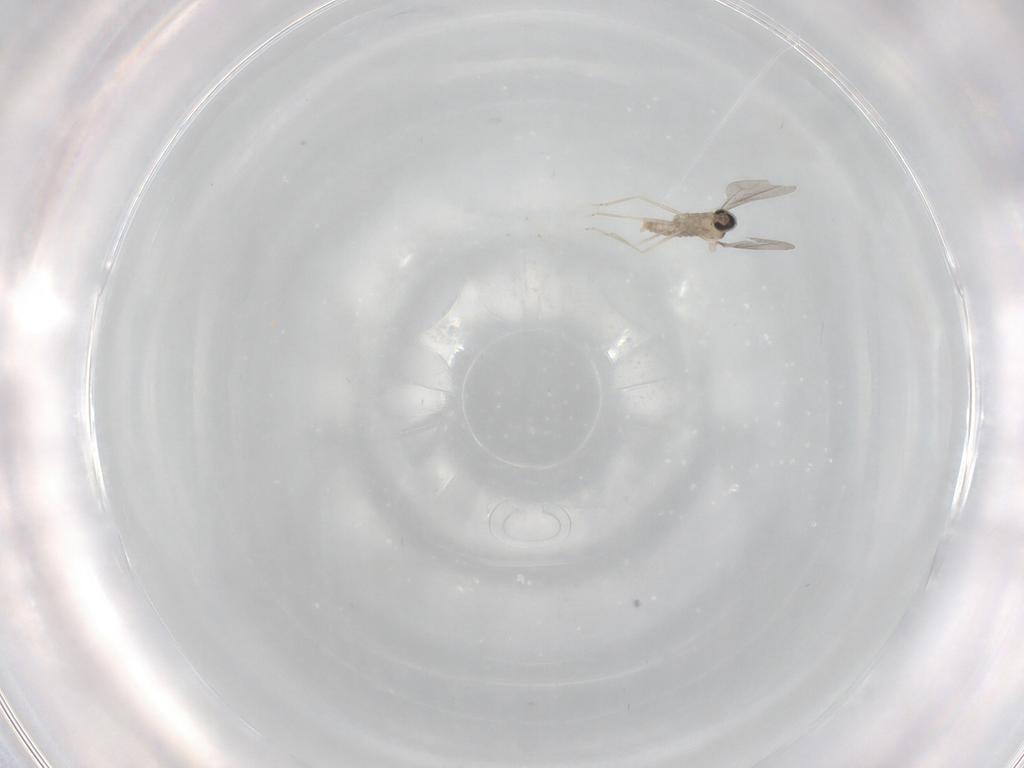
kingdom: Animalia
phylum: Arthropoda
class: Insecta
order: Diptera
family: Cecidomyiidae
